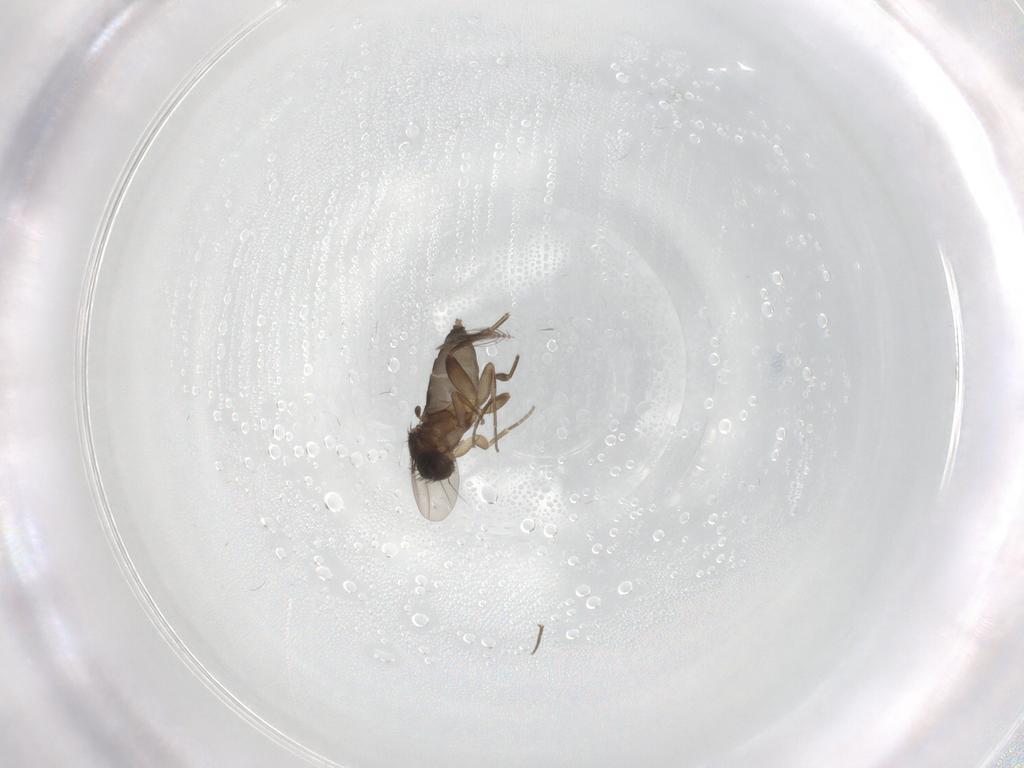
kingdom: Animalia
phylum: Arthropoda
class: Insecta
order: Diptera
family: Phoridae
